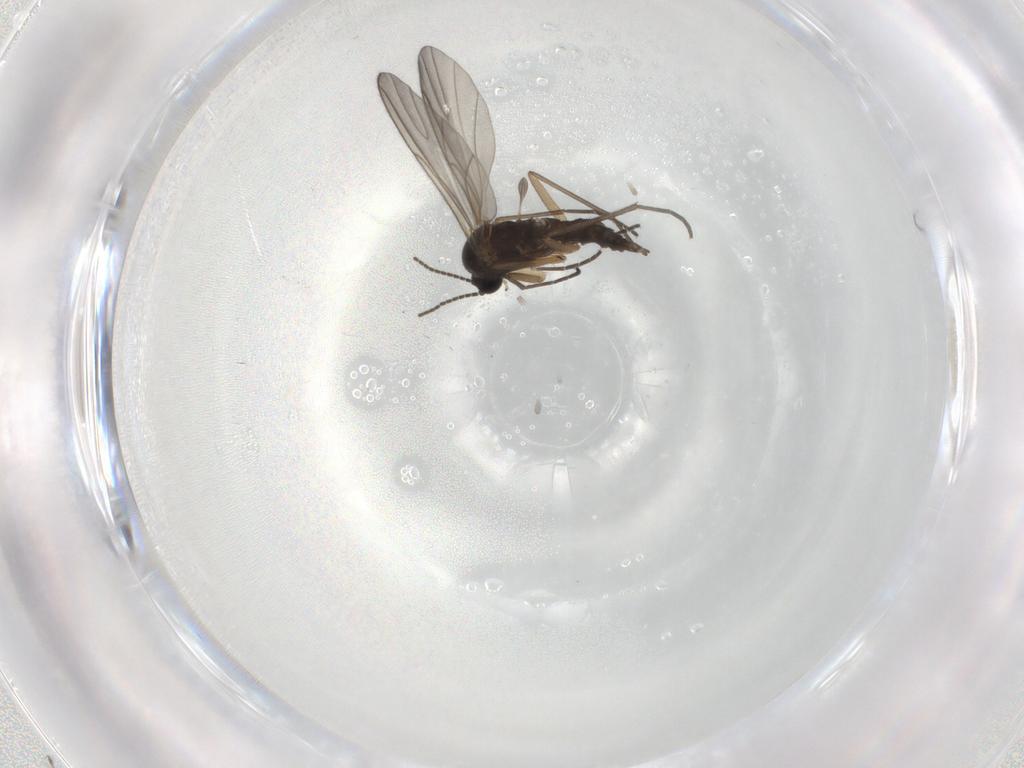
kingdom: Animalia
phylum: Arthropoda
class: Insecta
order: Diptera
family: Sciaridae
